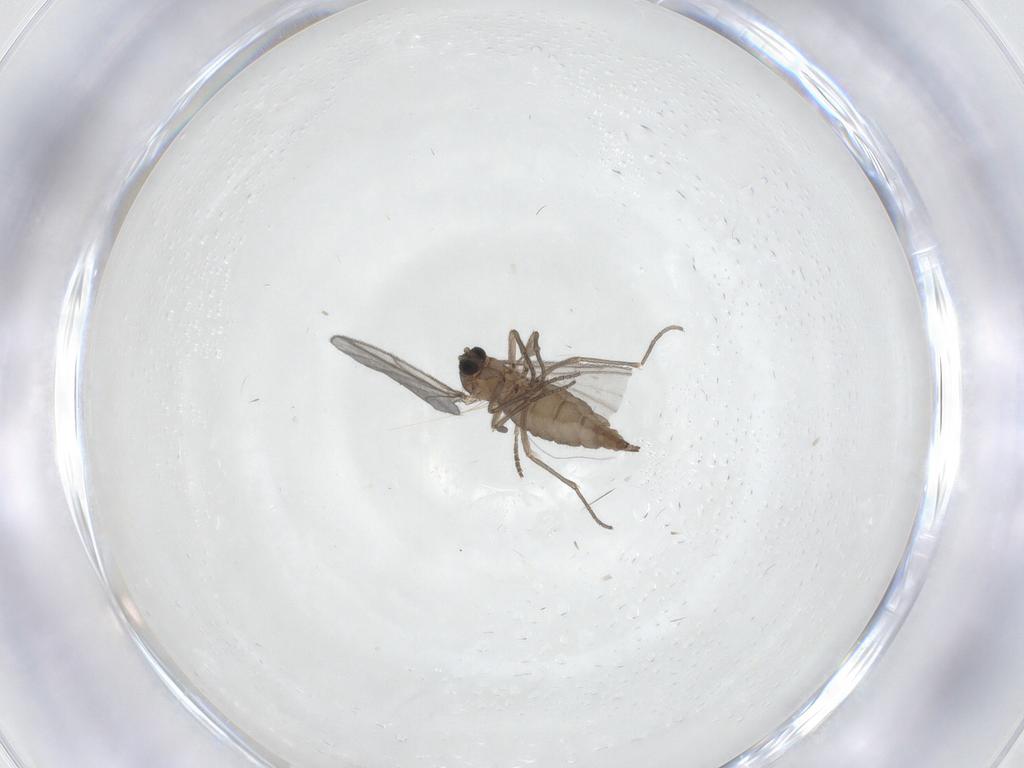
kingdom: Animalia
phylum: Arthropoda
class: Insecta
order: Diptera
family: Sciaridae
